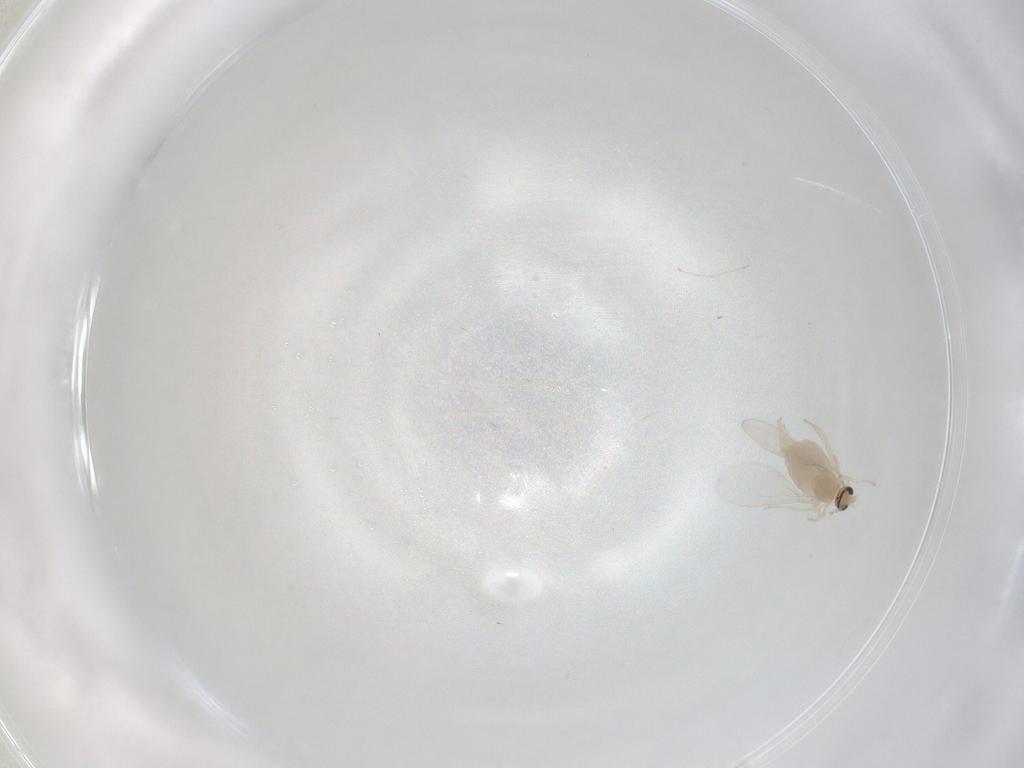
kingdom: Animalia
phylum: Arthropoda
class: Insecta
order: Diptera
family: Cecidomyiidae
